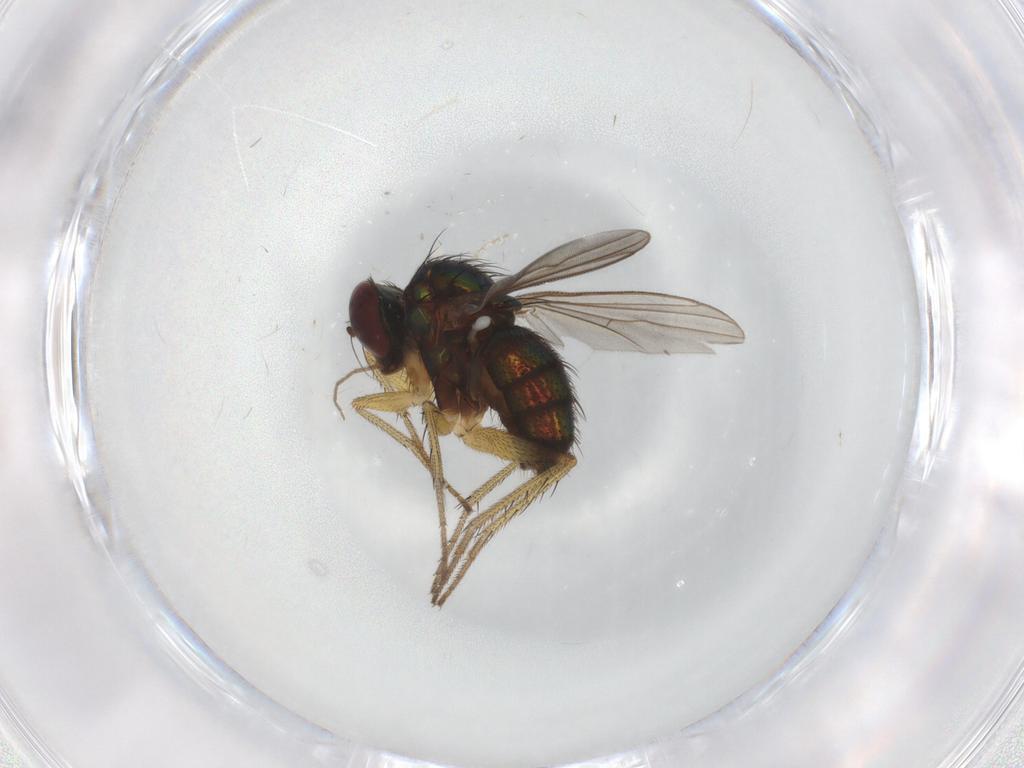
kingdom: Animalia
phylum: Arthropoda
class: Insecta
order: Diptera
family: Dolichopodidae
